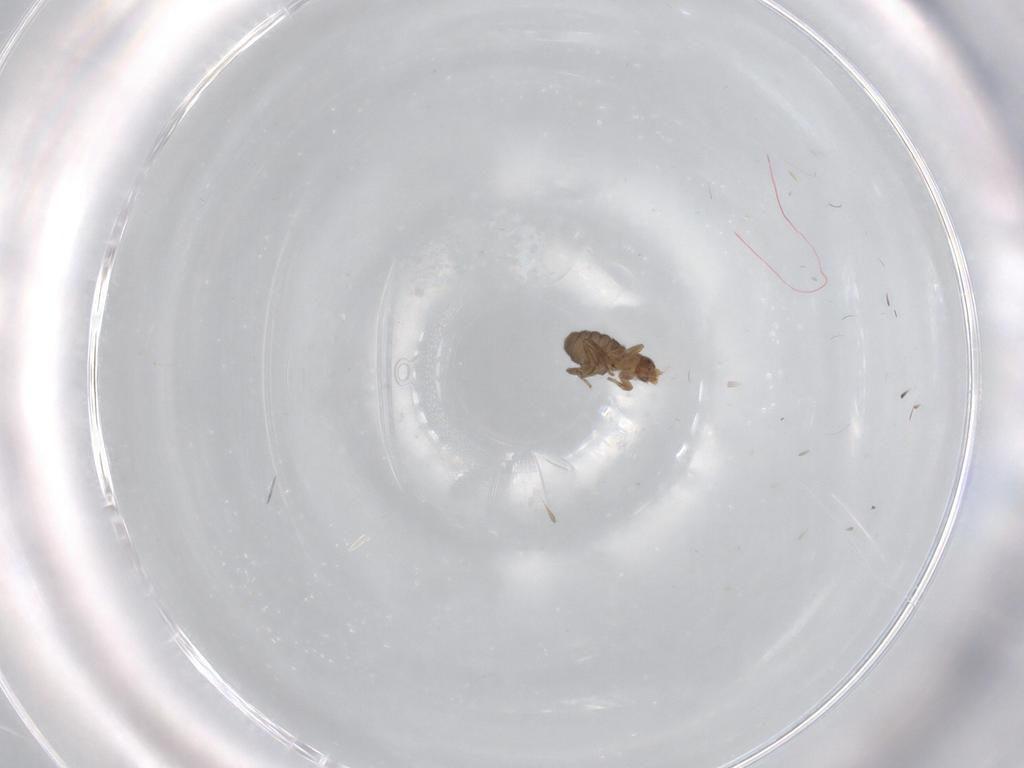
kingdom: Animalia
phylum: Arthropoda
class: Insecta
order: Diptera
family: Phoridae
